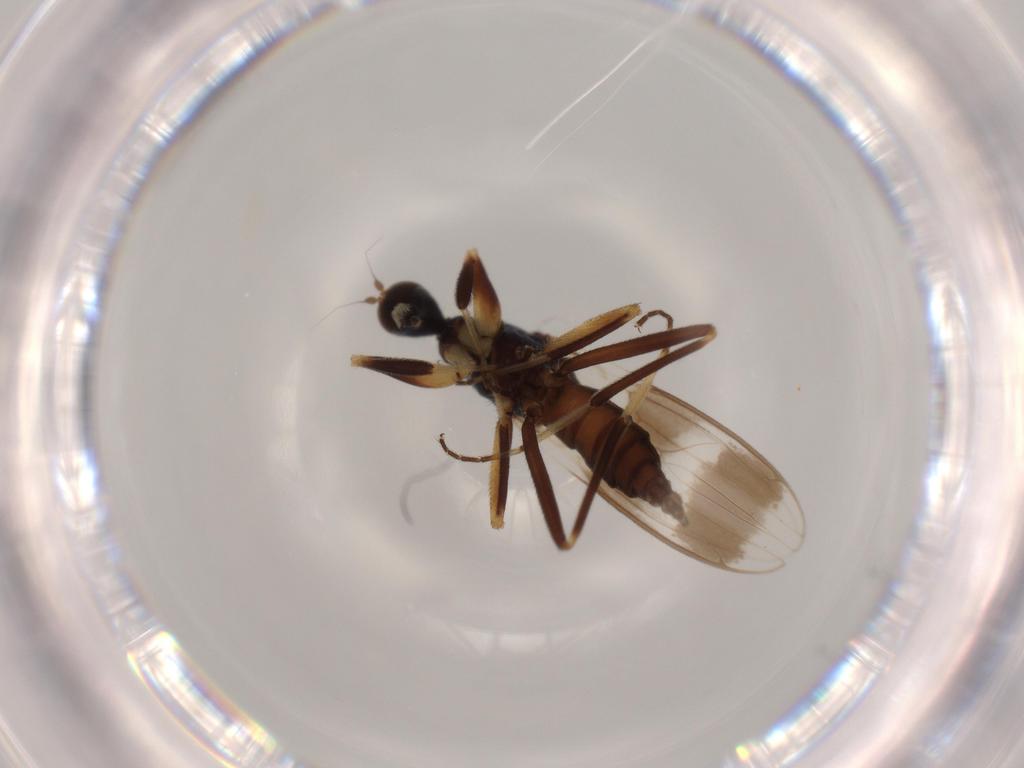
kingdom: Animalia
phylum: Arthropoda
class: Insecta
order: Diptera
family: Hybotidae
